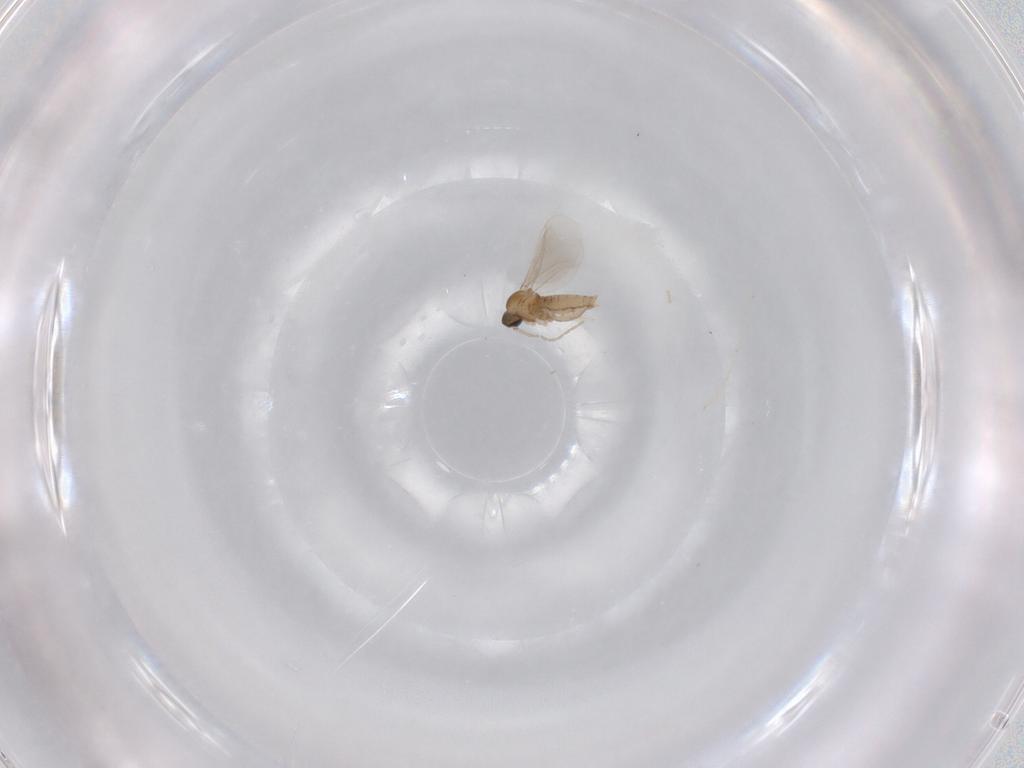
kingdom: Animalia
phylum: Arthropoda
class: Insecta
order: Diptera
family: Cecidomyiidae
